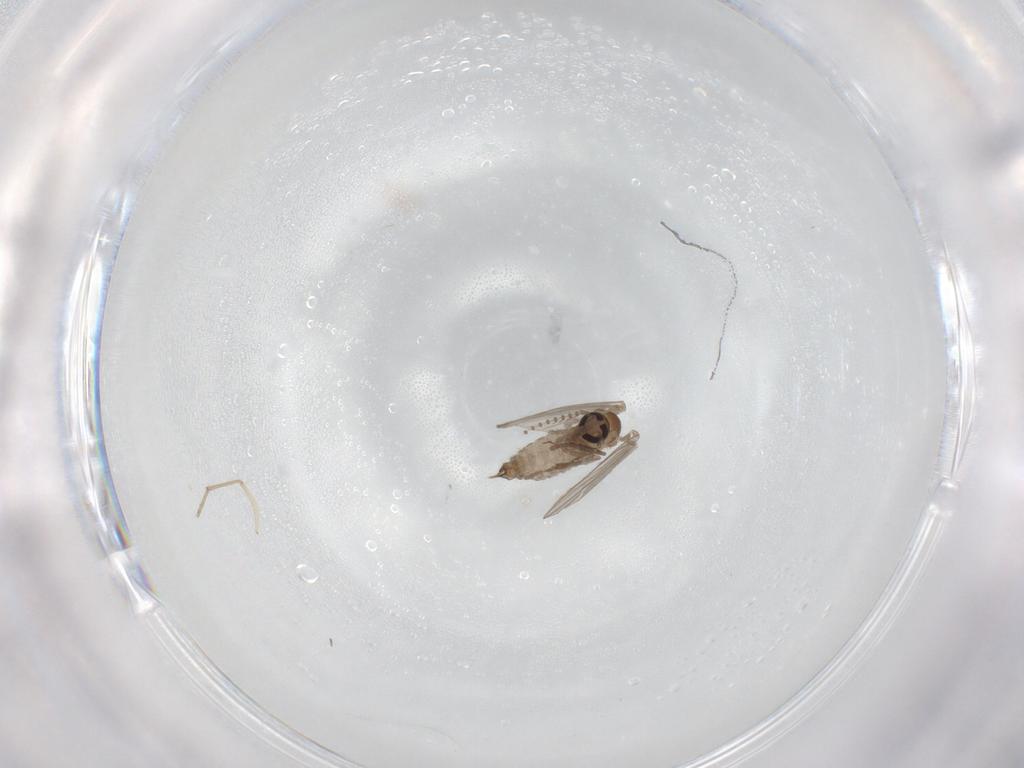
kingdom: Animalia
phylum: Arthropoda
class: Insecta
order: Diptera
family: Psychodidae
